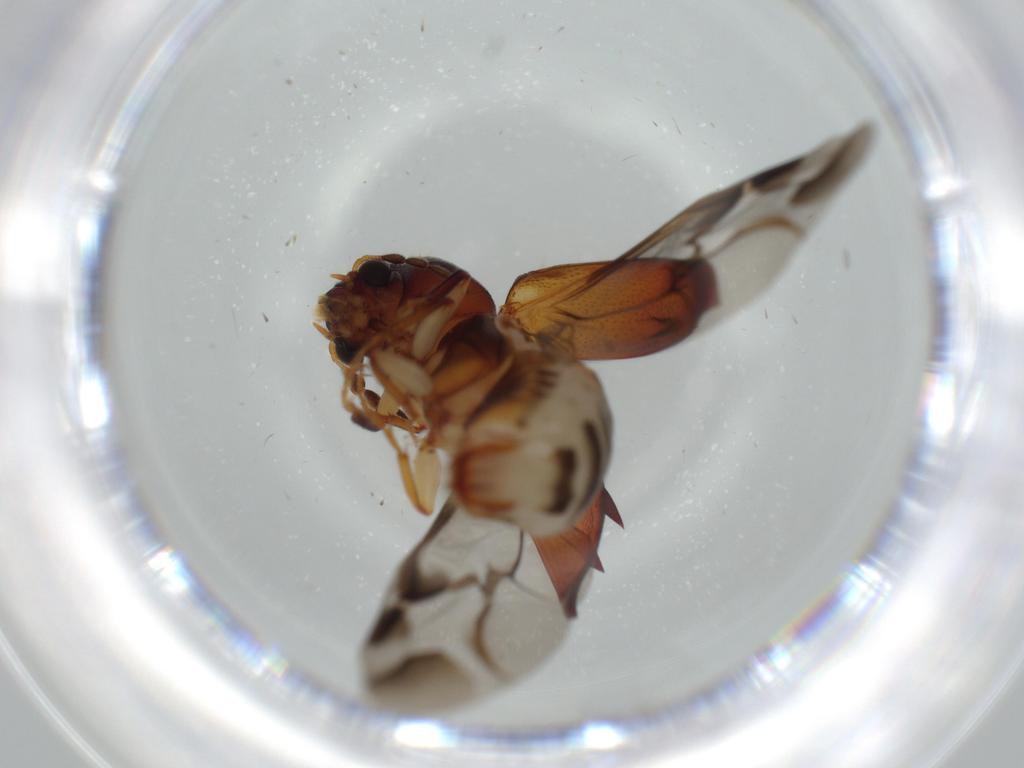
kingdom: Animalia
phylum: Arthropoda
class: Insecta
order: Coleoptera
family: Bostrichidae
